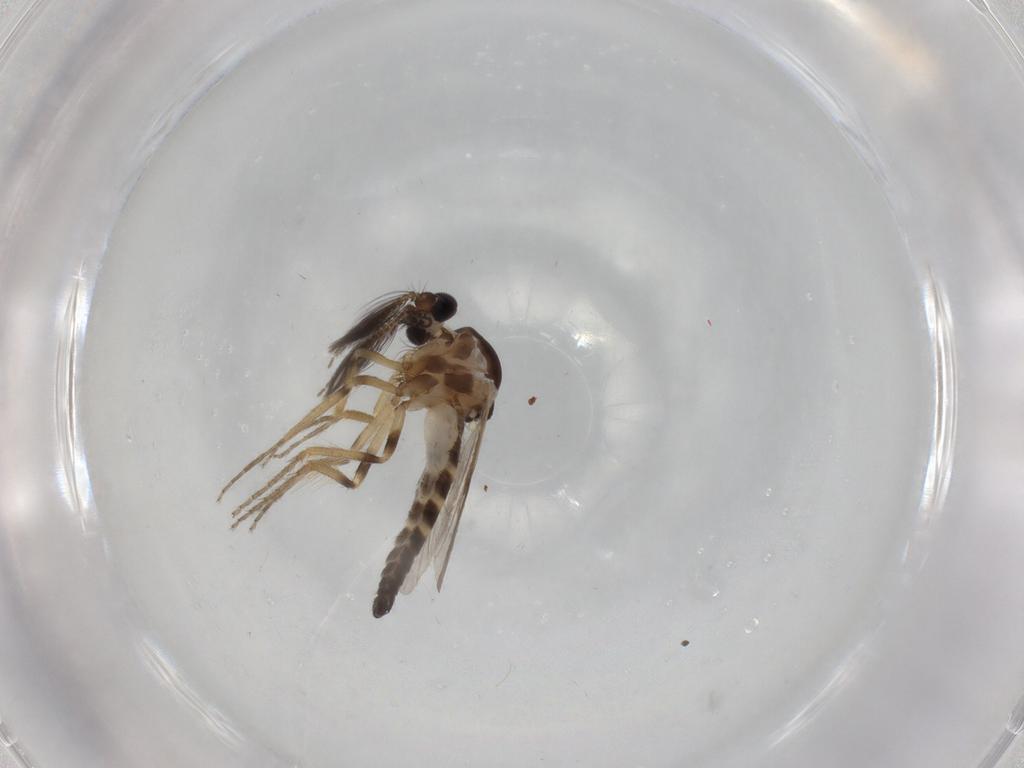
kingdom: Animalia
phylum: Arthropoda
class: Insecta
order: Diptera
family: Ceratopogonidae
